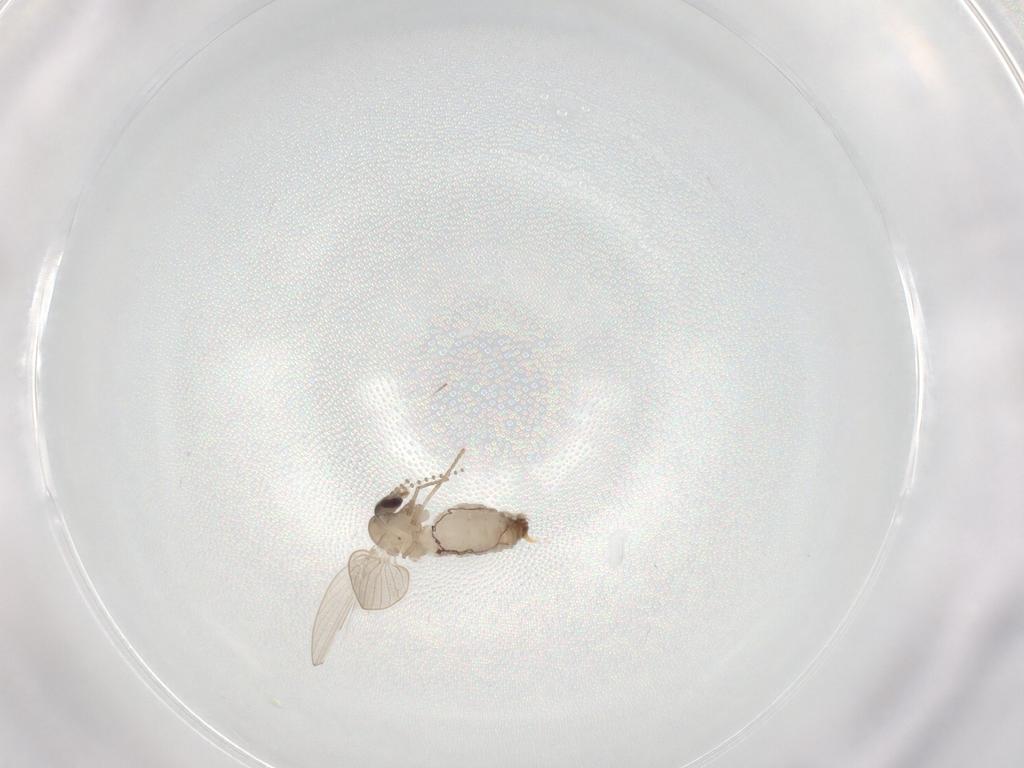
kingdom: Animalia
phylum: Arthropoda
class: Insecta
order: Diptera
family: Psychodidae
